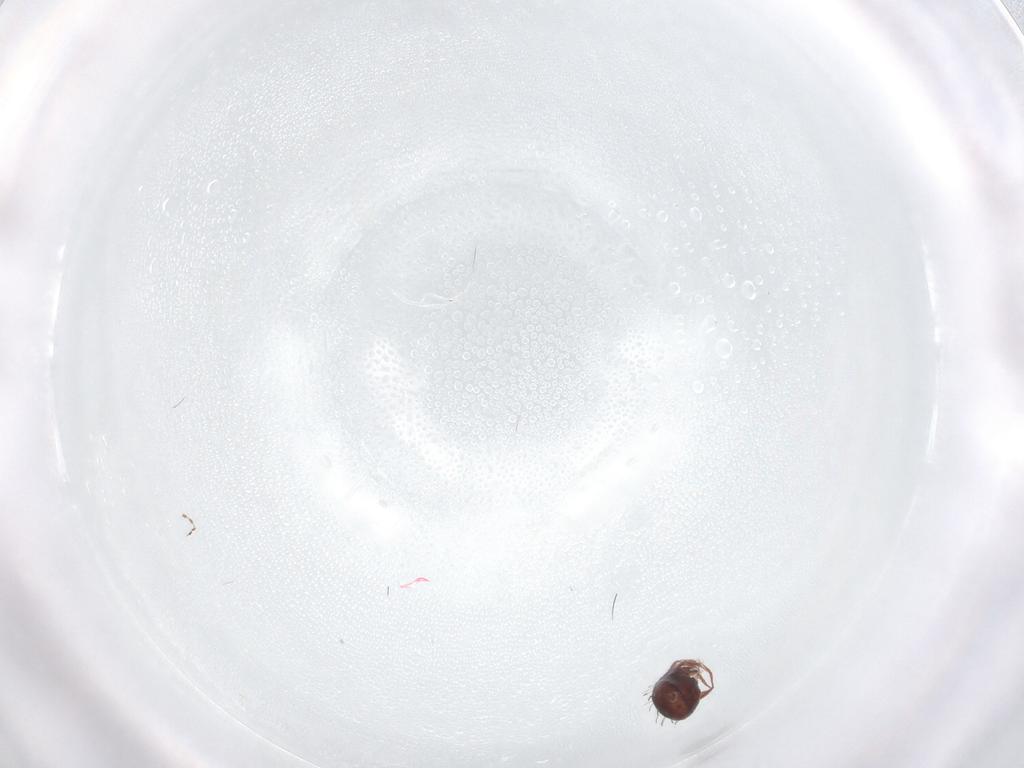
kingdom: Animalia
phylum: Arthropoda
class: Arachnida
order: Sarcoptiformes
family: Caloppiidae
